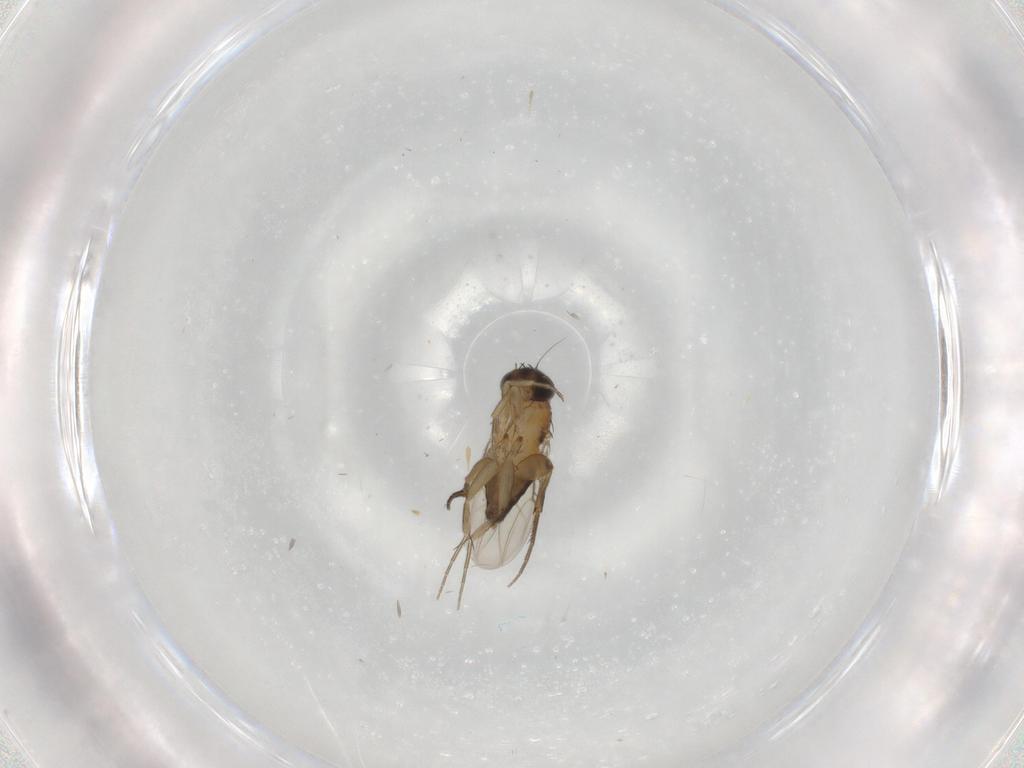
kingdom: Animalia
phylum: Arthropoda
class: Insecta
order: Diptera
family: Phoridae
